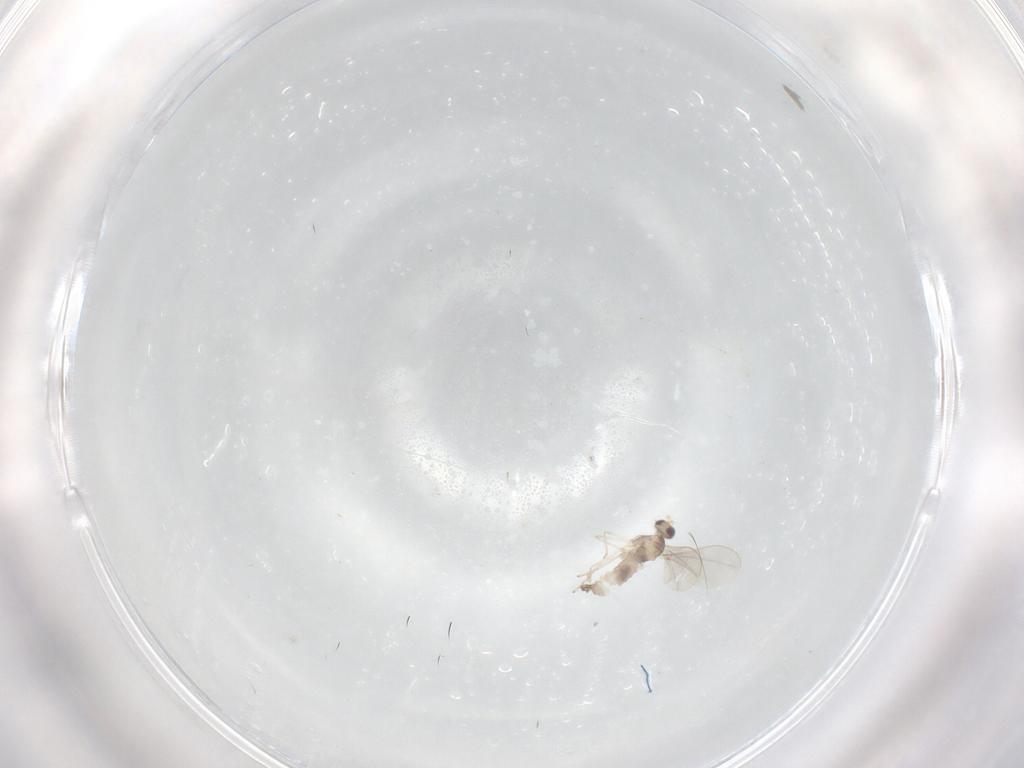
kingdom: Animalia
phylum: Arthropoda
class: Insecta
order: Diptera
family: Cecidomyiidae
